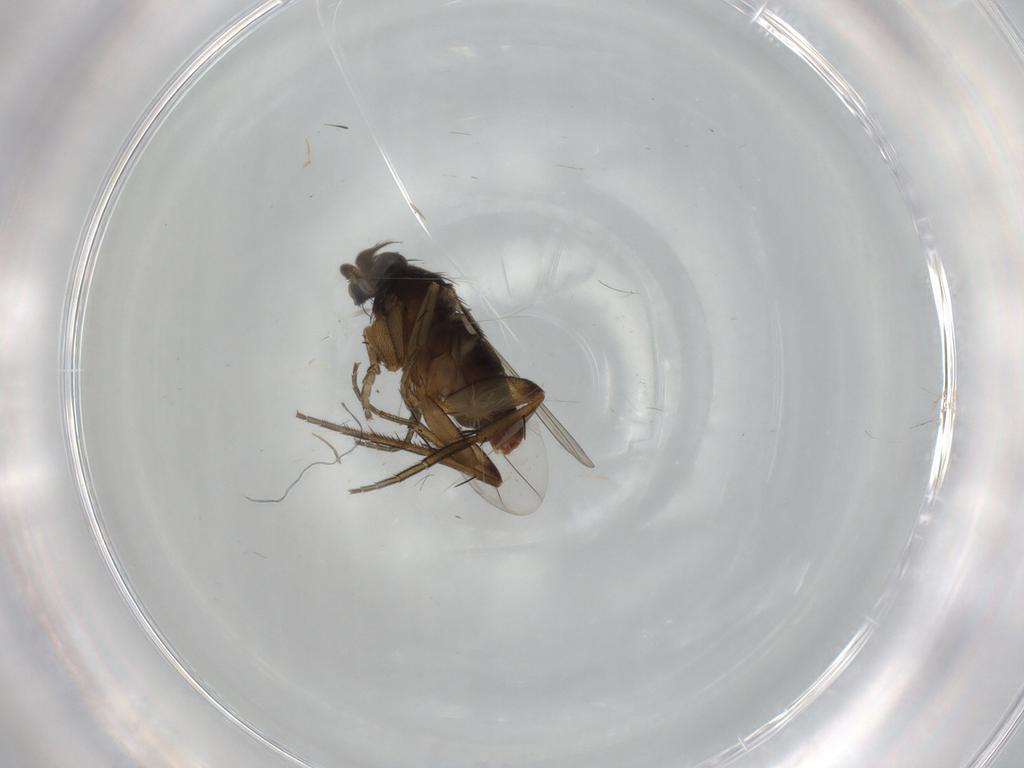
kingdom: Animalia
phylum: Arthropoda
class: Insecta
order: Diptera
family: Phoridae
